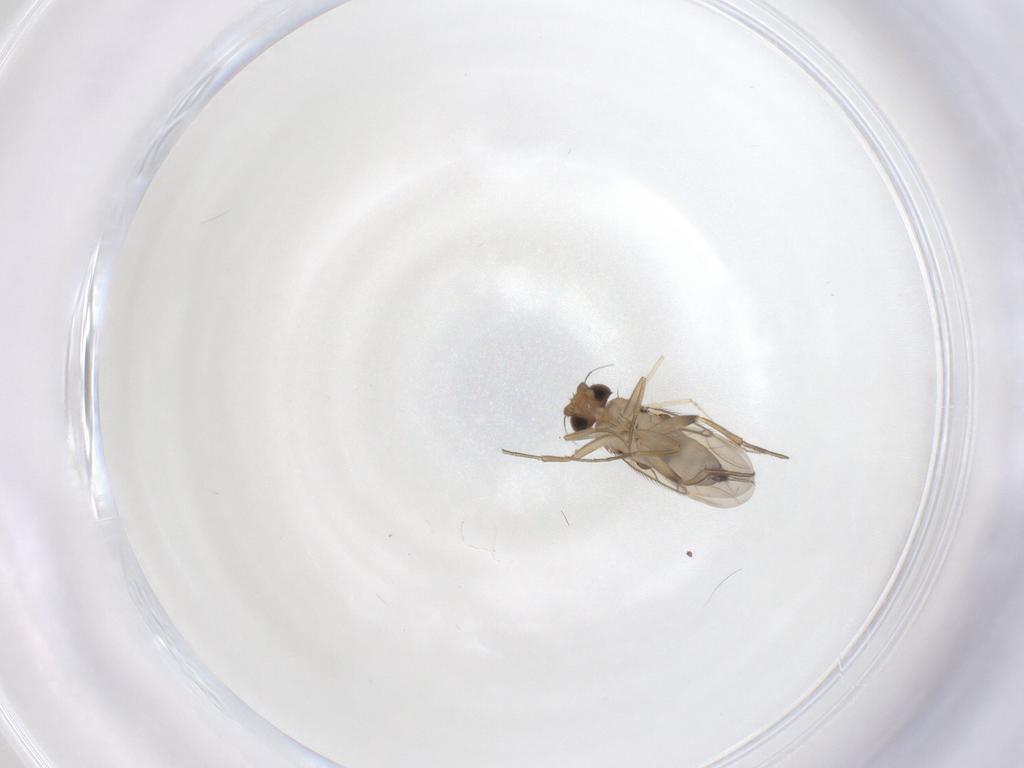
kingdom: Animalia
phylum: Arthropoda
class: Insecta
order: Diptera
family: Phoridae
